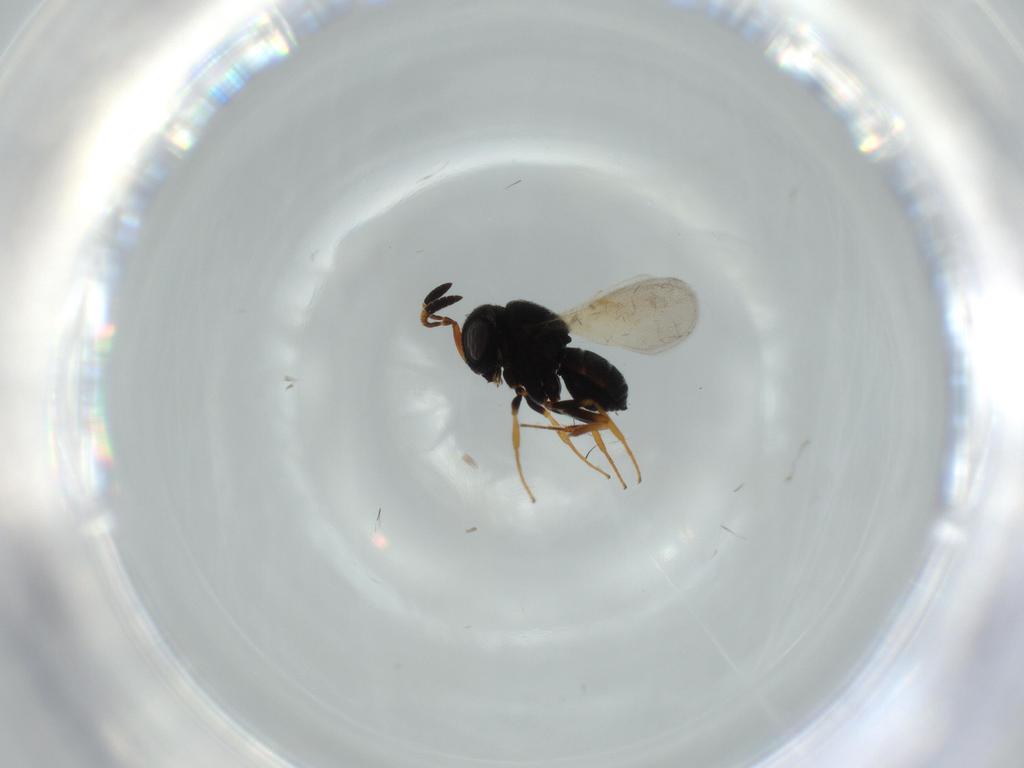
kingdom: Animalia
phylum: Arthropoda
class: Insecta
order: Hymenoptera
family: Scelionidae
